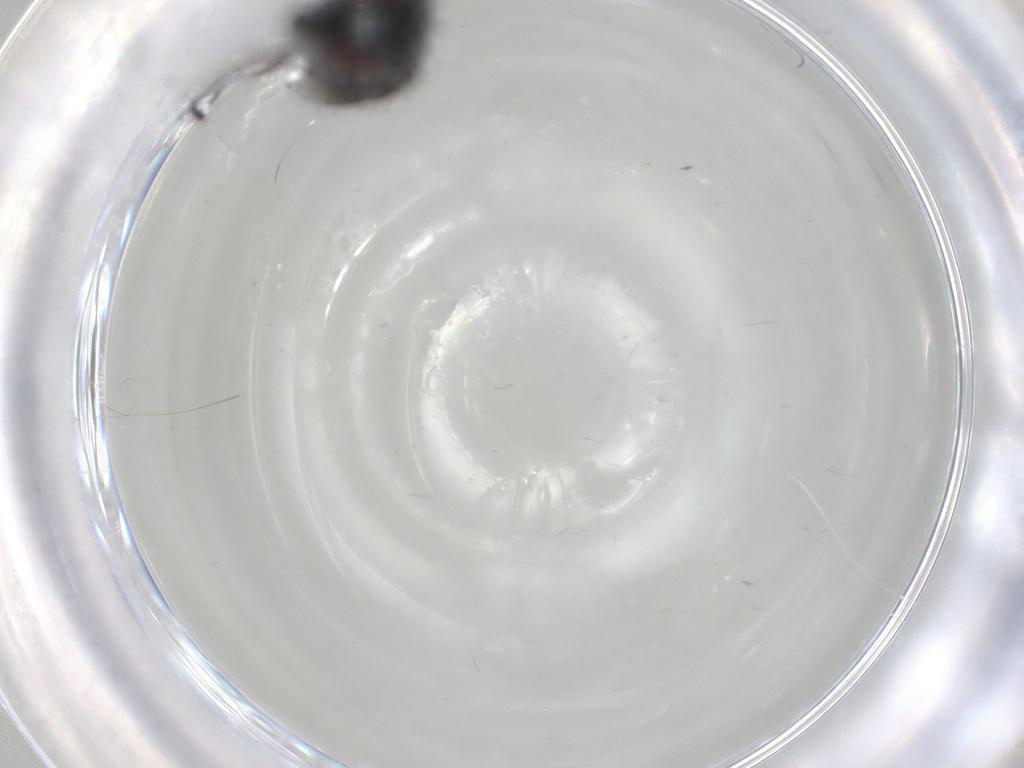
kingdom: Animalia
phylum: Arthropoda
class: Insecta
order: Diptera
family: Milichiidae
